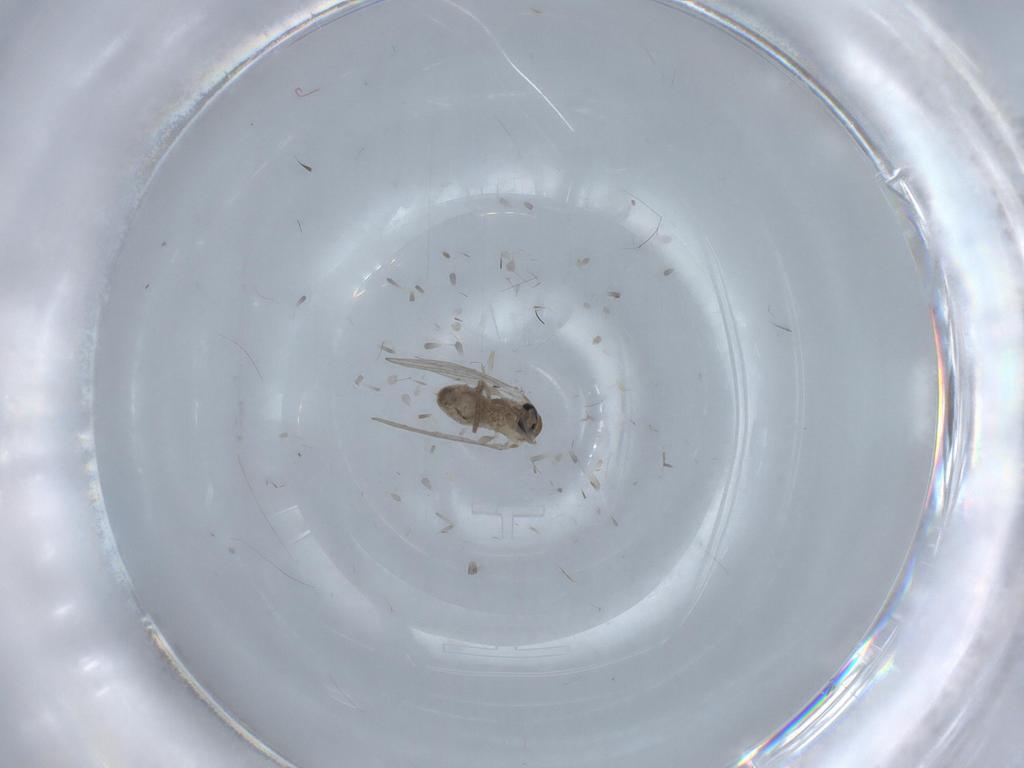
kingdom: Animalia
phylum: Arthropoda
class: Insecta
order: Diptera
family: Psychodidae
